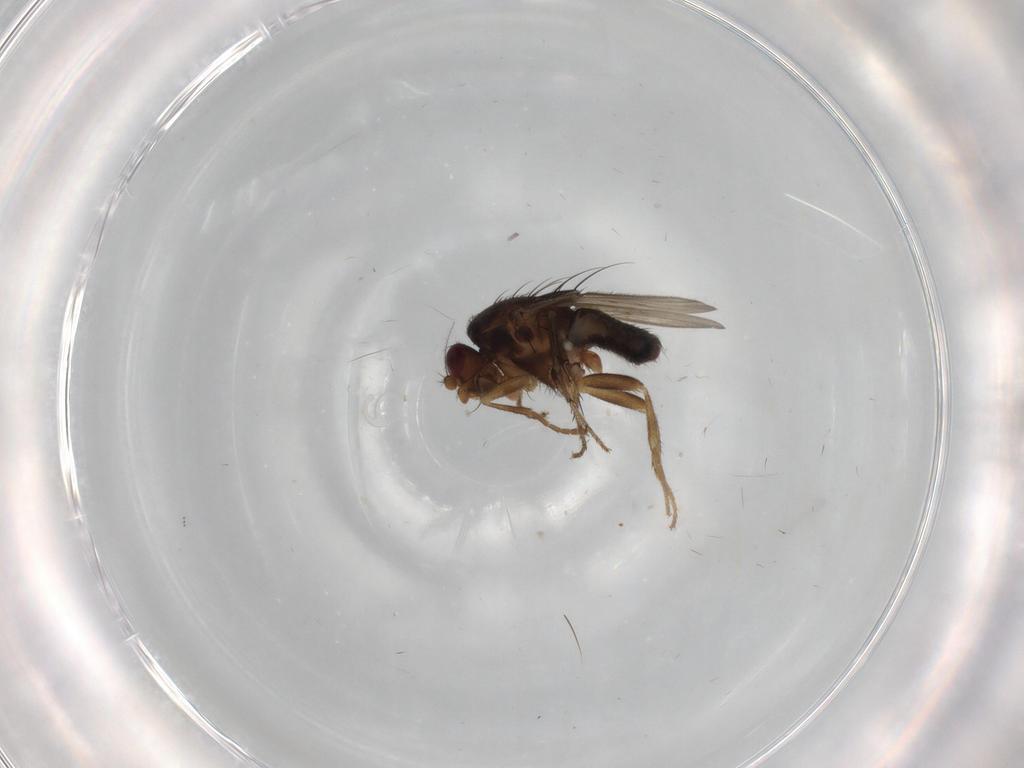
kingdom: Animalia
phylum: Arthropoda
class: Insecta
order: Diptera
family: Sphaeroceridae
